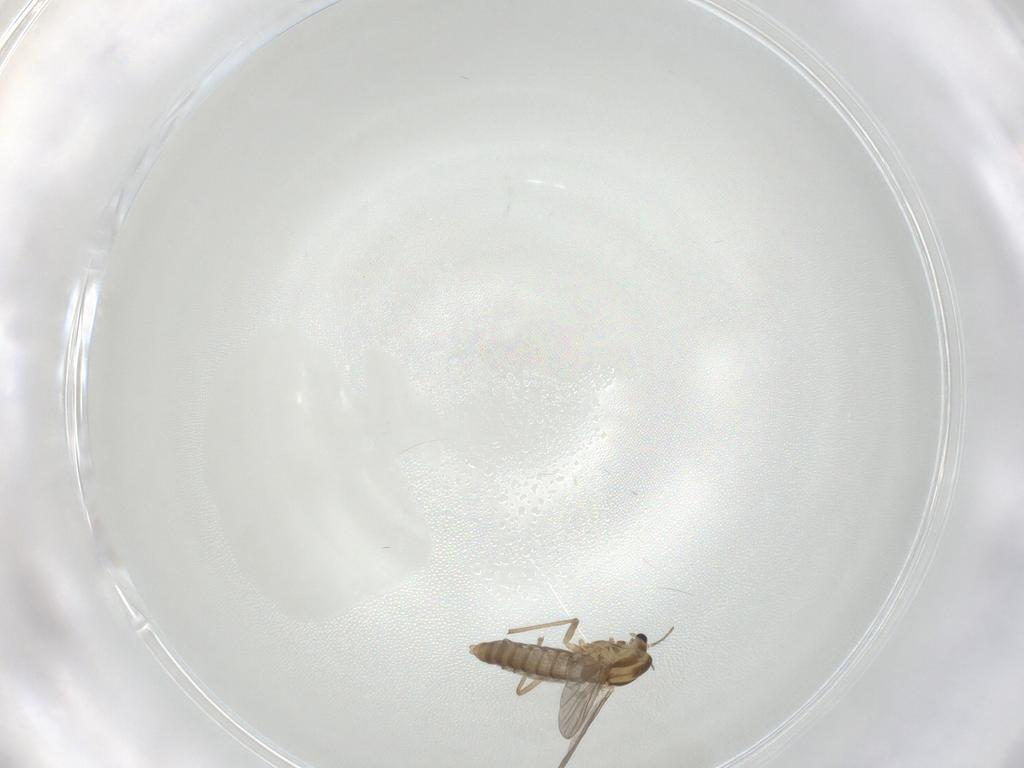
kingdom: Animalia
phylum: Arthropoda
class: Insecta
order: Diptera
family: Chironomidae
